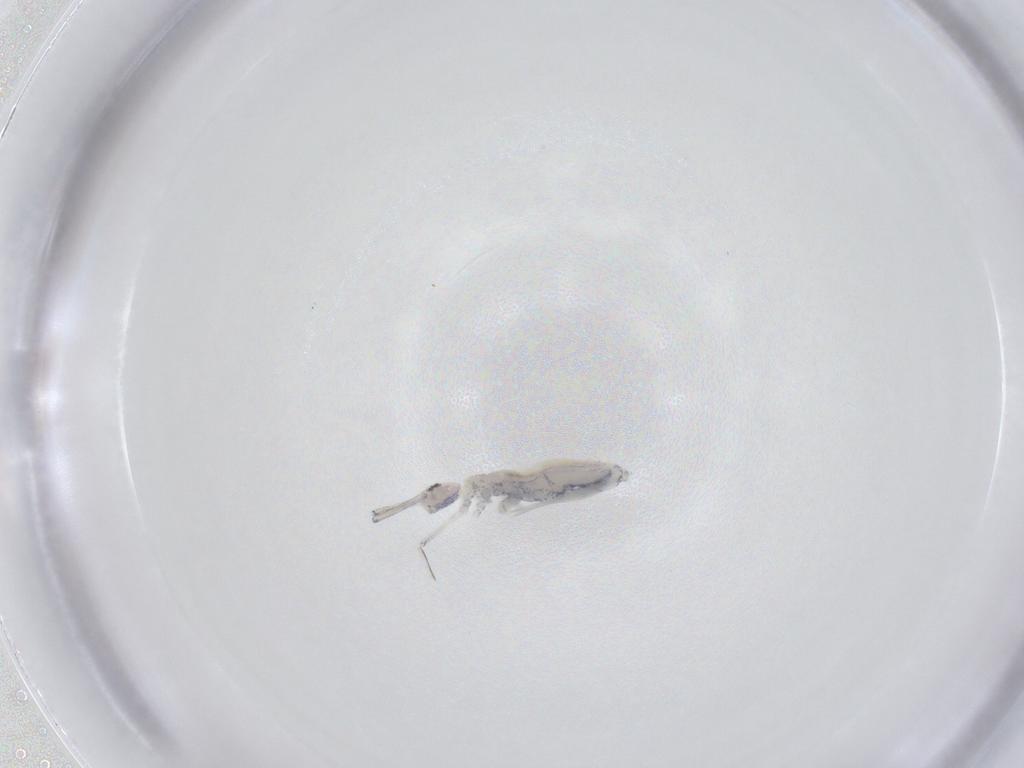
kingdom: Animalia
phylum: Arthropoda
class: Collembola
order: Entomobryomorpha
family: Entomobryidae
